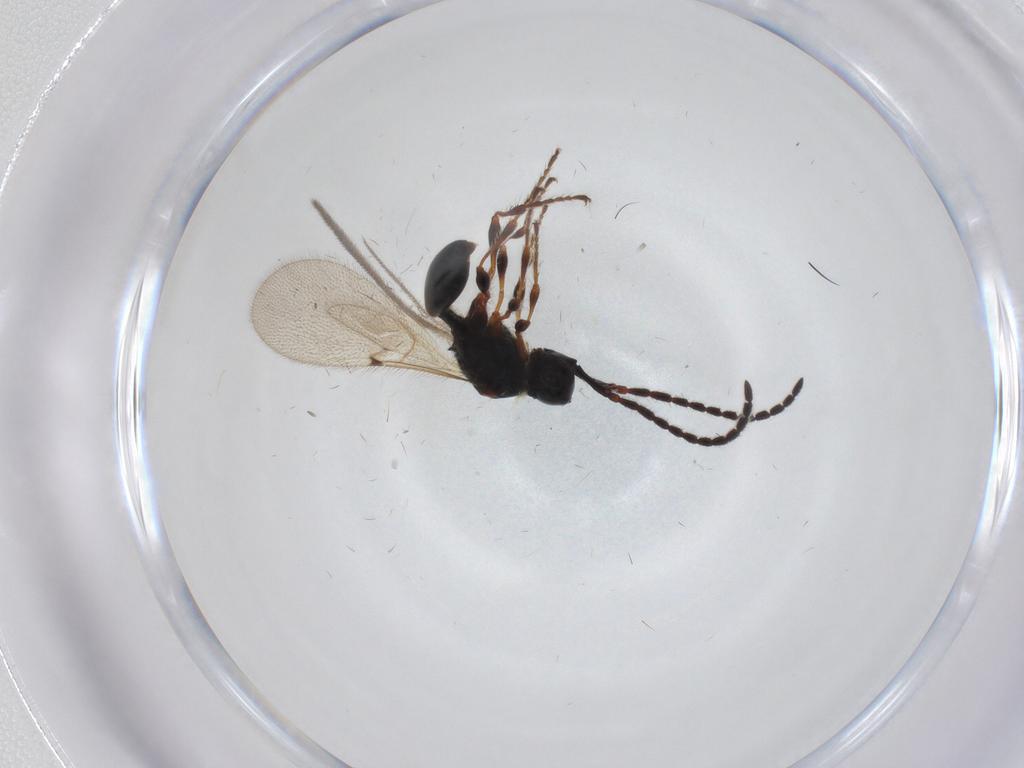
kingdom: Animalia
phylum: Arthropoda
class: Insecta
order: Hymenoptera
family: Diapriidae
